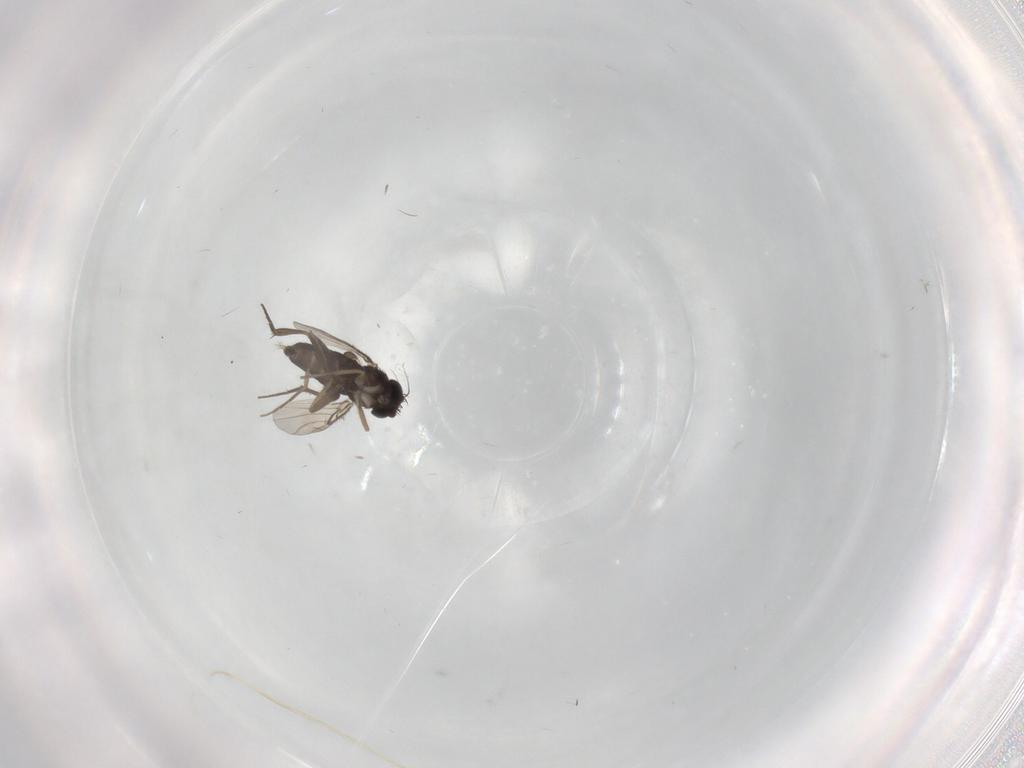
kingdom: Animalia
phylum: Arthropoda
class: Insecta
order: Diptera
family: Phoridae
